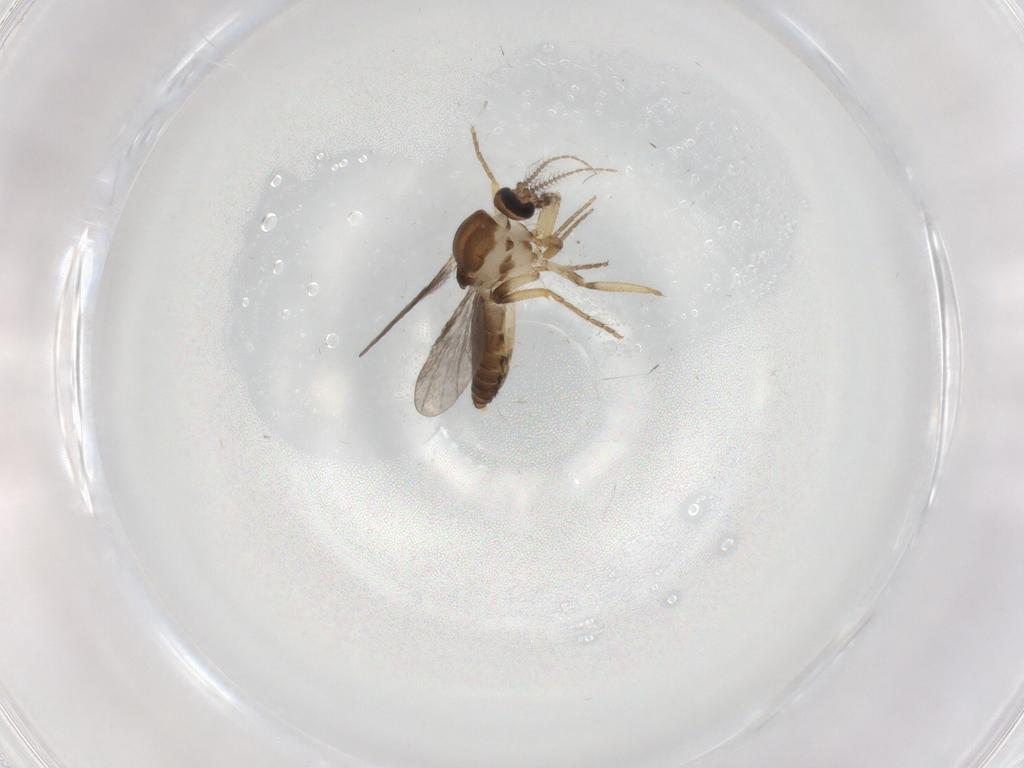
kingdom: Animalia
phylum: Arthropoda
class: Insecta
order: Diptera
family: Ceratopogonidae
